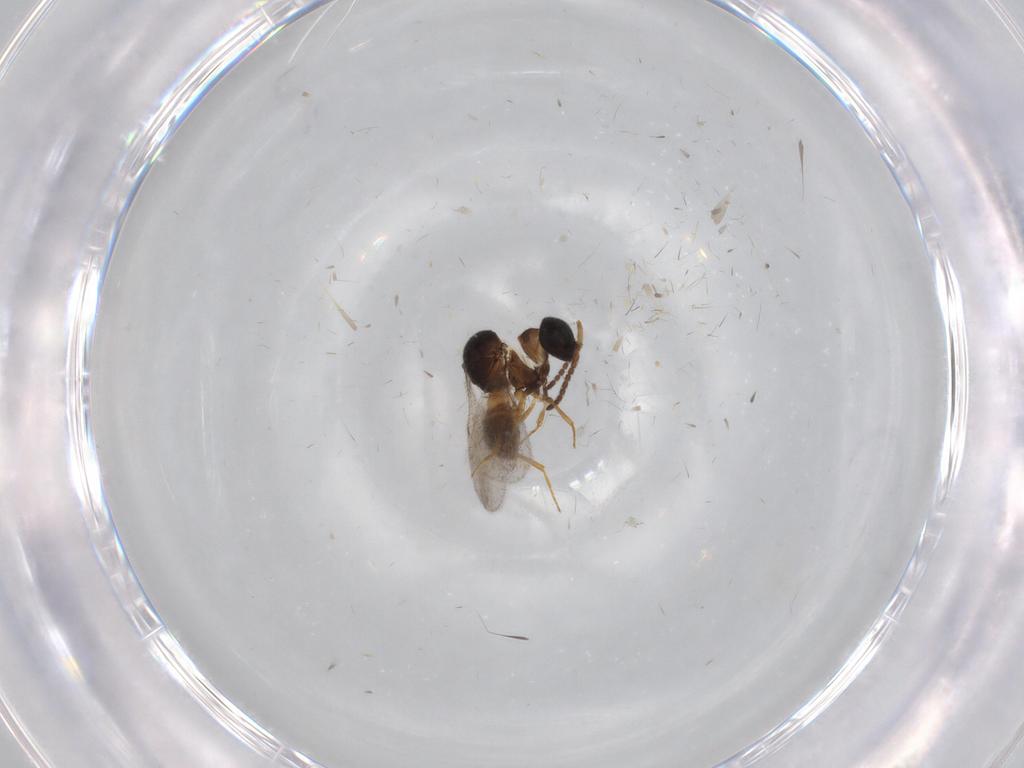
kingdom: Animalia
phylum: Arthropoda
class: Insecta
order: Hymenoptera
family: Scelionidae
